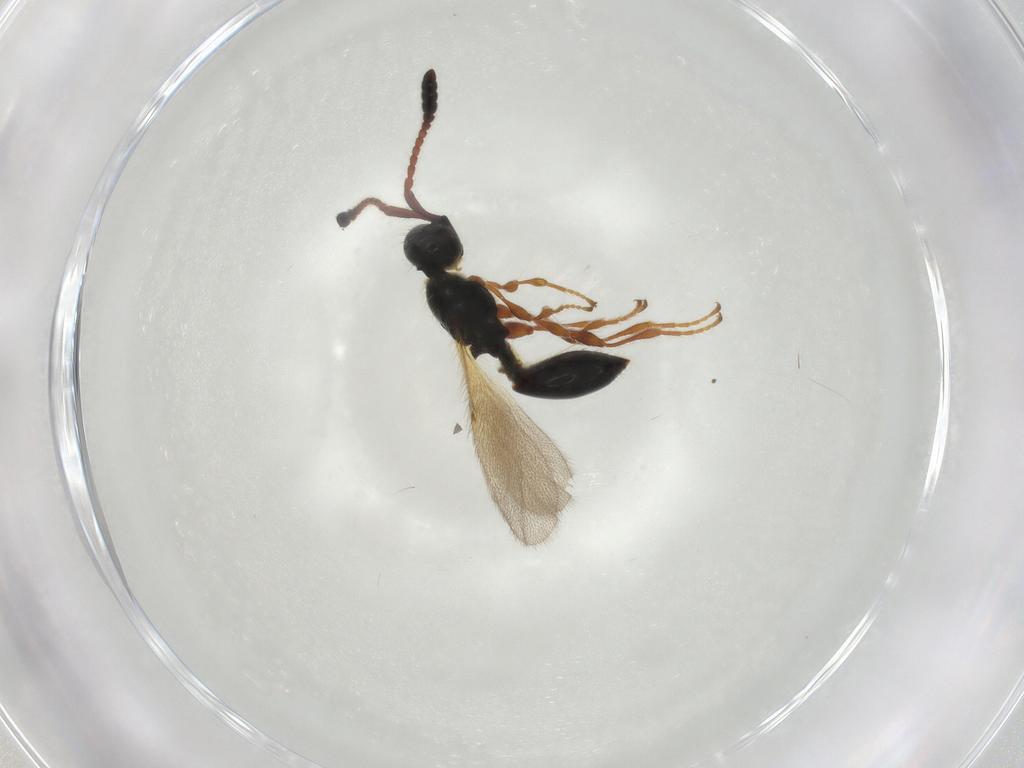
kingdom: Animalia
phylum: Arthropoda
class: Insecta
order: Hymenoptera
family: Diapriidae
